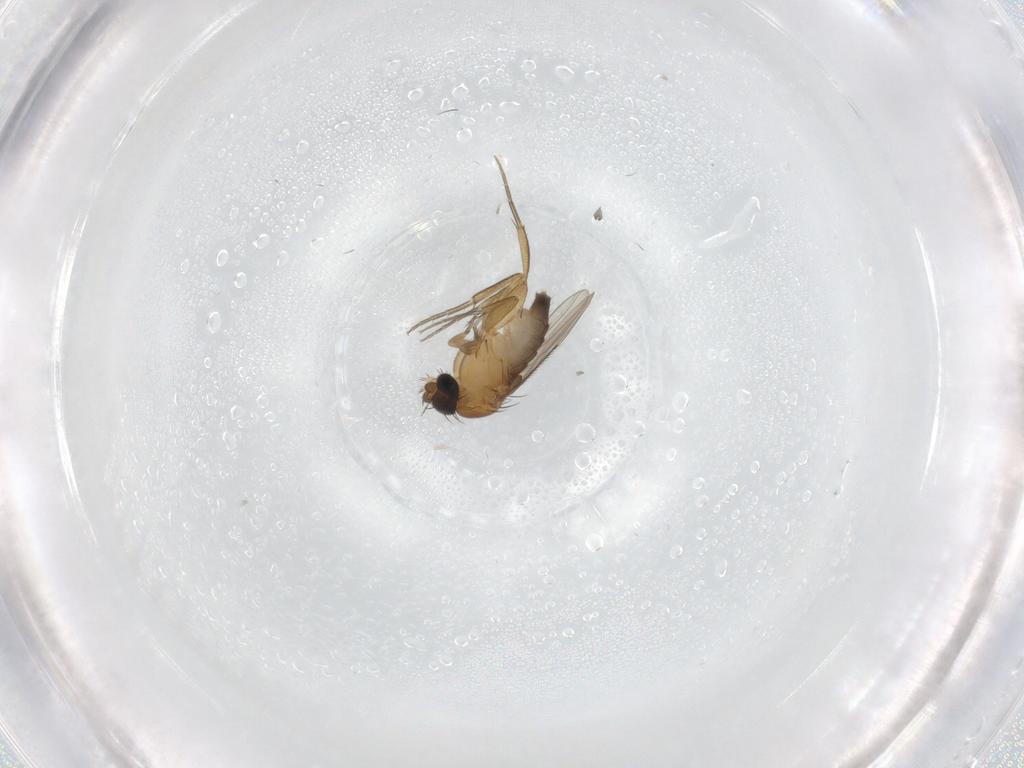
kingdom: Animalia
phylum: Arthropoda
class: Insecta
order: Diptera
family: Phoridae
